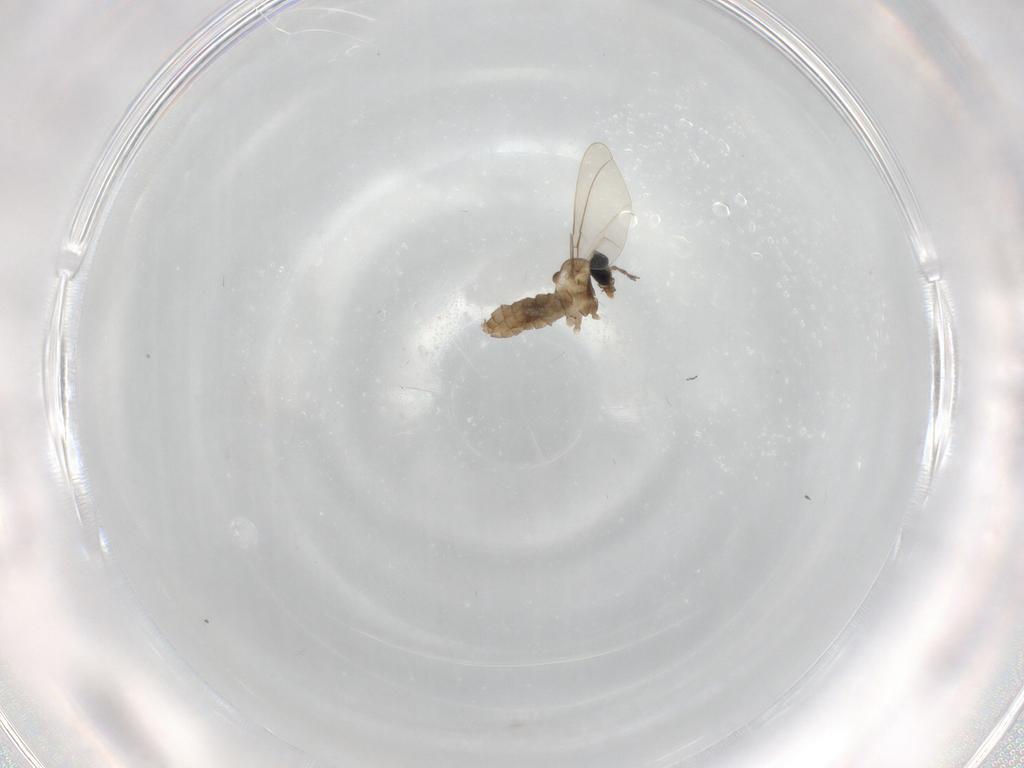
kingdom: Animalia
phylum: Arthropoda
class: Insecta
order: Diptera
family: Cecidomyiidae
